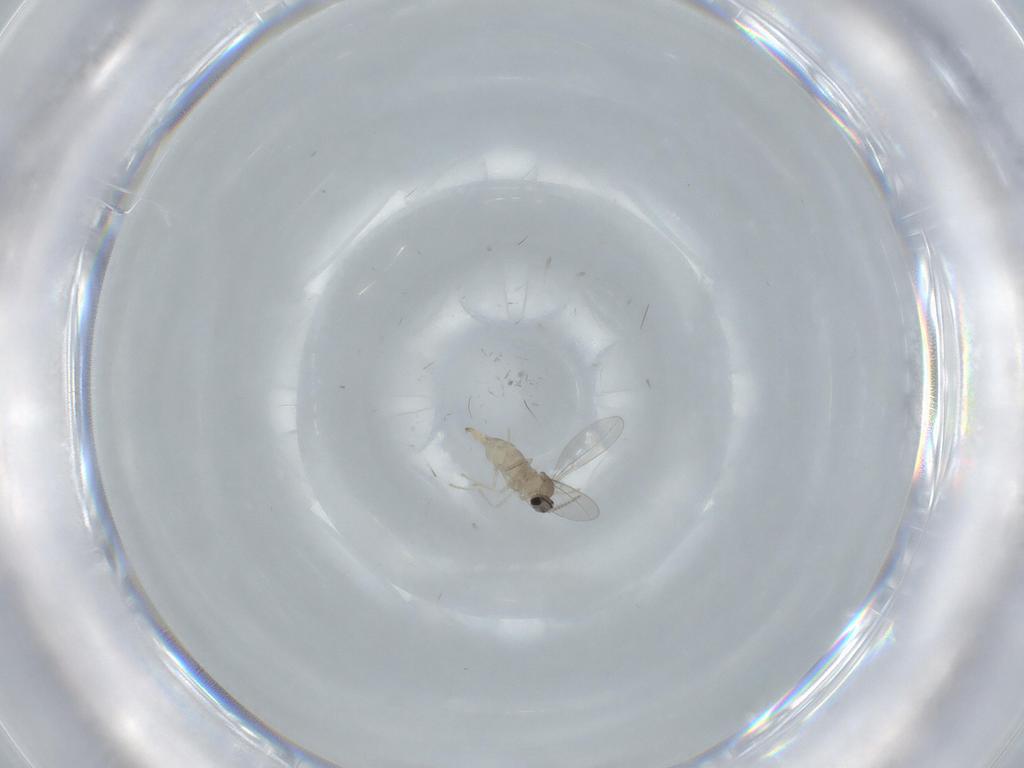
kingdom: Animalia
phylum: Arthropoda
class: Insecta
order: Diptera
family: Cecidomyiidae
